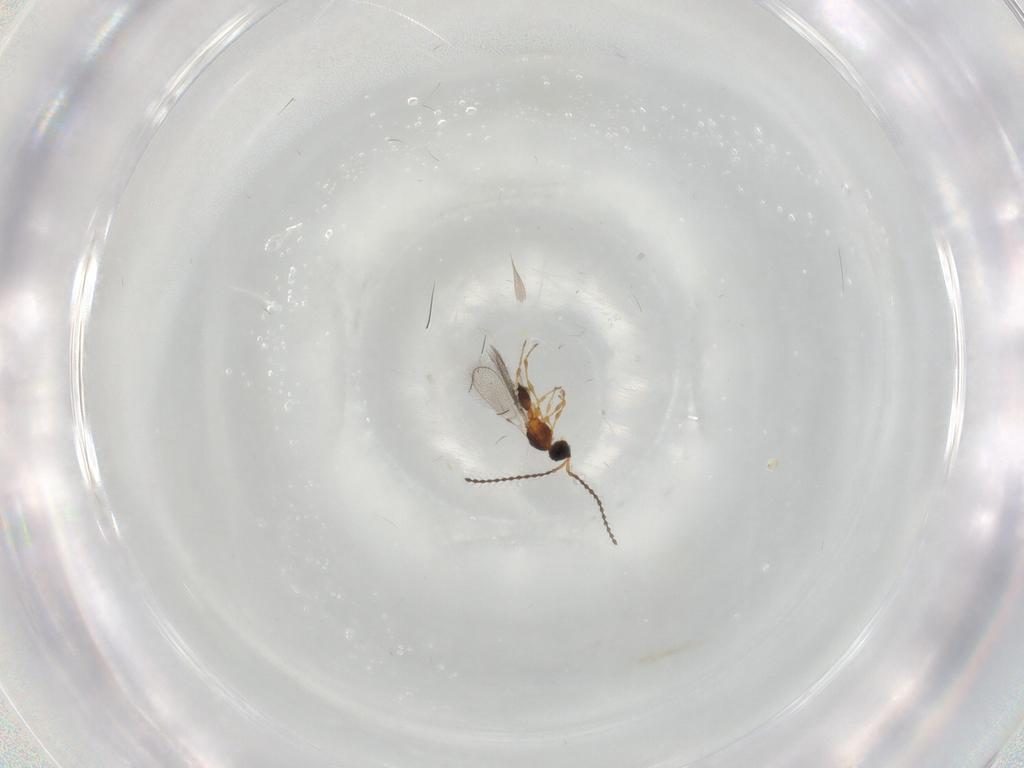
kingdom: Animalia
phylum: Arthropoda
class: Insecta
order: Hymenoptera
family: Diapriidae
